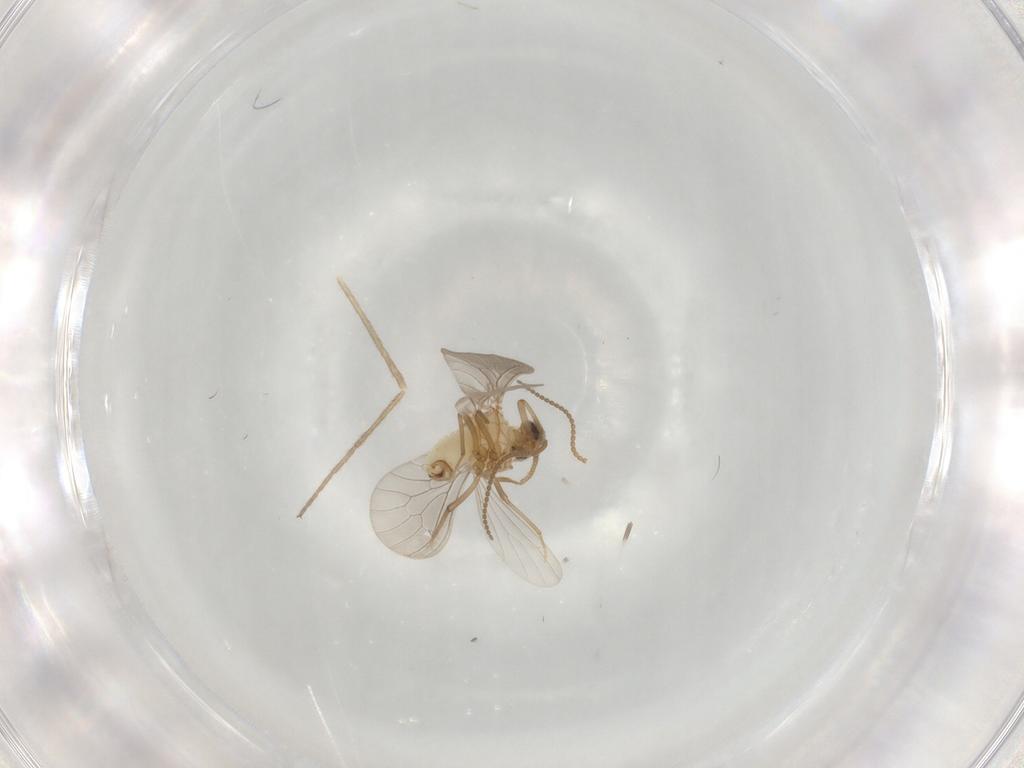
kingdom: Animalia
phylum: Arthropoda
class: Insecta
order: Neuroptera
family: Coniopterygidae
